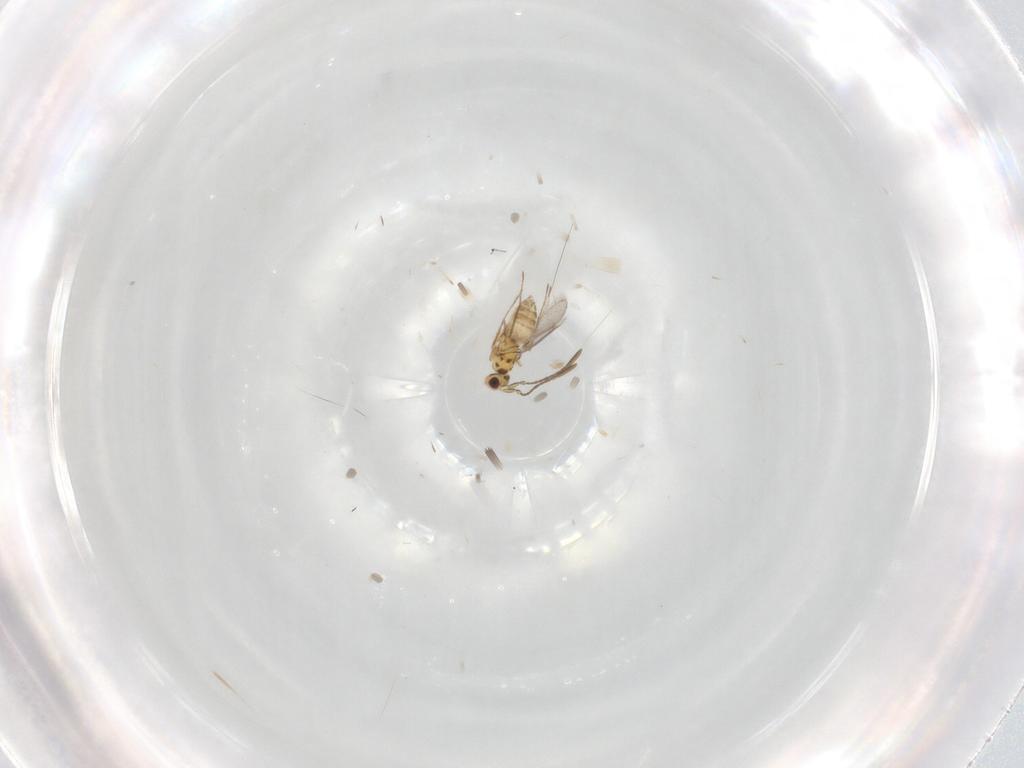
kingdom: Animalia
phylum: Arthropoda
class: Insecta
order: Hymenoptera
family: Mymaridae
